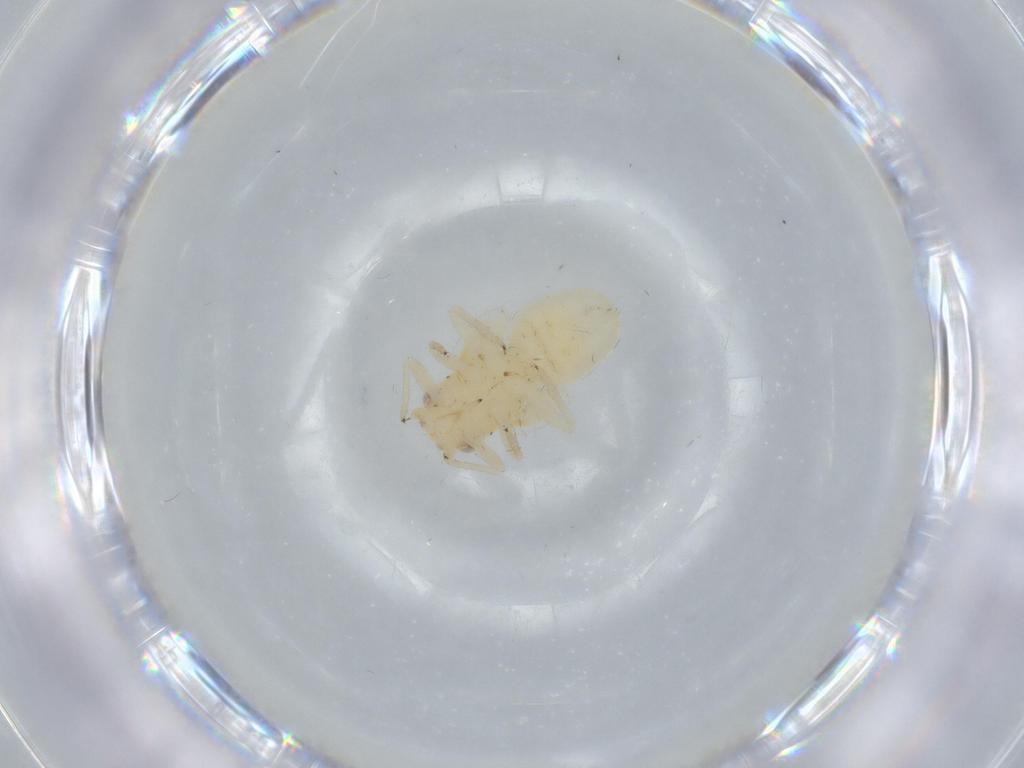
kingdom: Animalia
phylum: Arthropoda
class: Insecta
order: Hemiptera
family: Psyllidae
